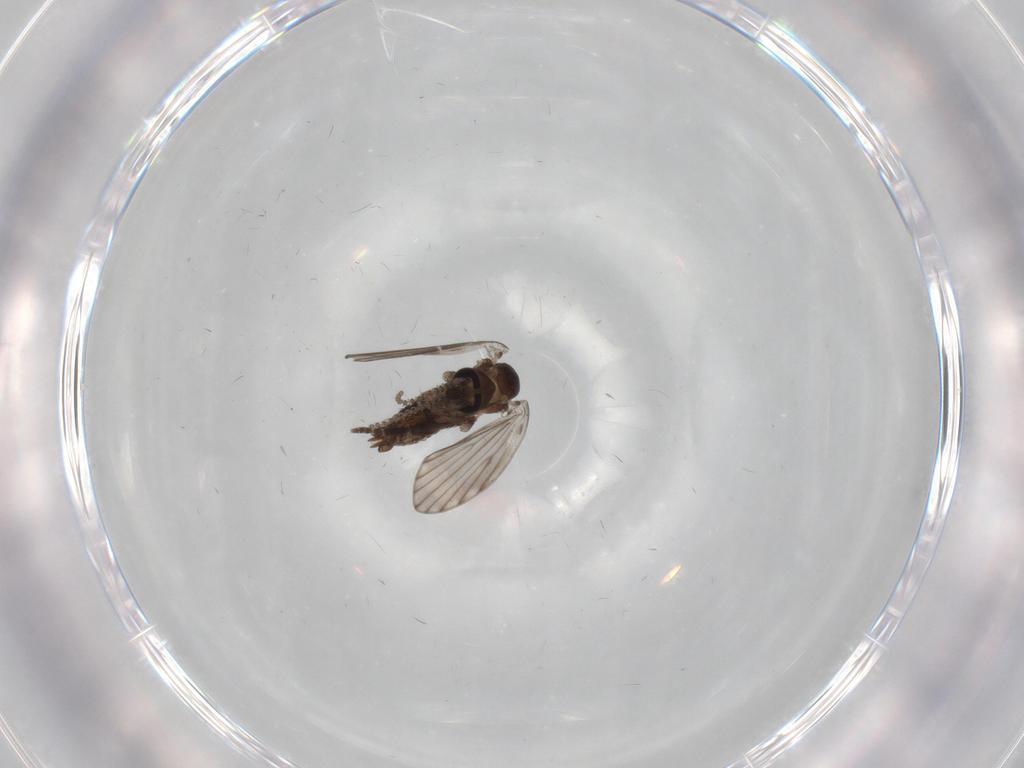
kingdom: Animalia
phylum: Arthropoda
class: Insecta
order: Diptera
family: Psychodidae
